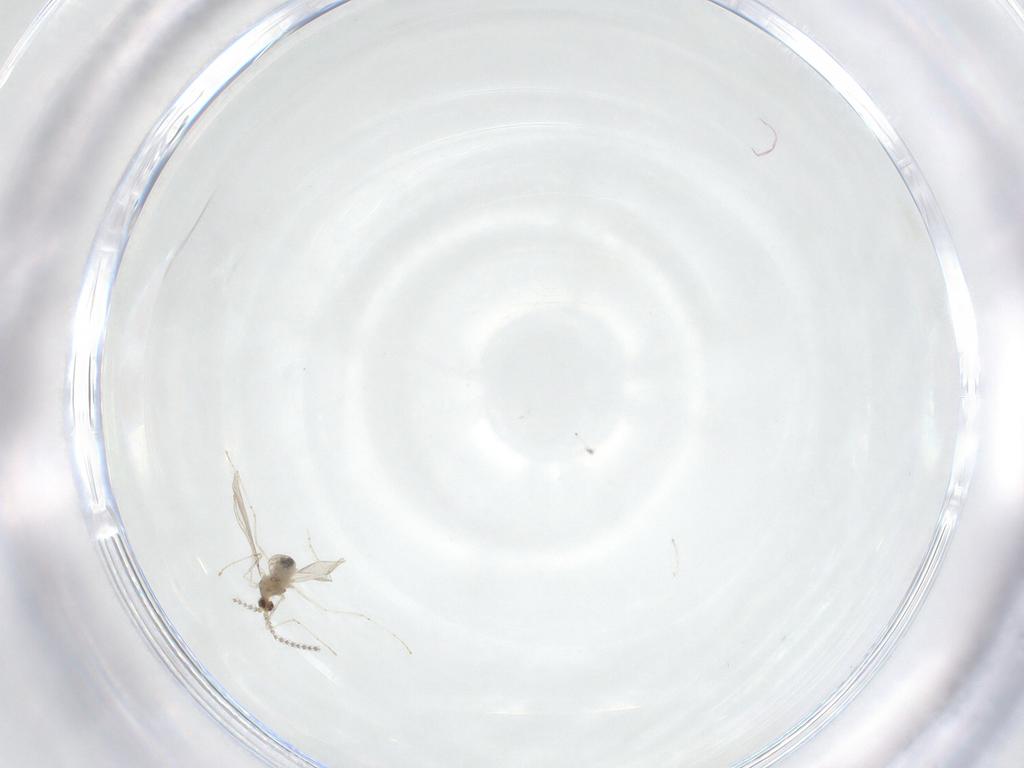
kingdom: Animalia
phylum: Arthropoda
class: Insecta
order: Diptera
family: Cecidomyiidae
